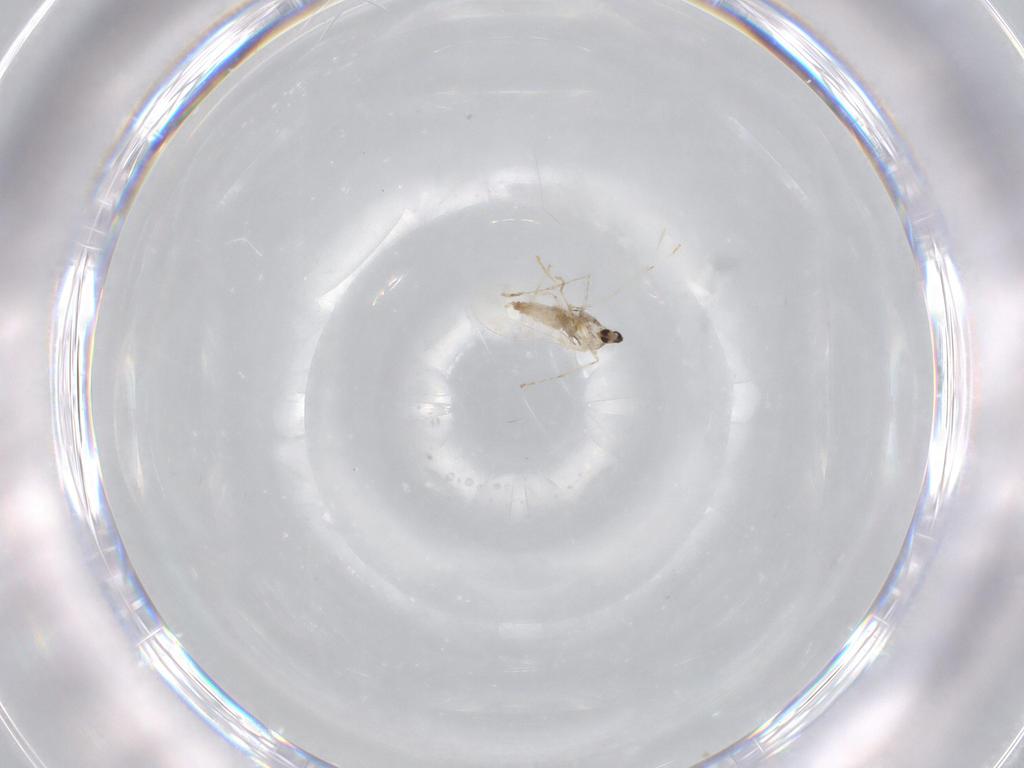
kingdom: Animalia
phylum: Arthropoda
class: Insecta
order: Diptera
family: Cecidomyiidae
